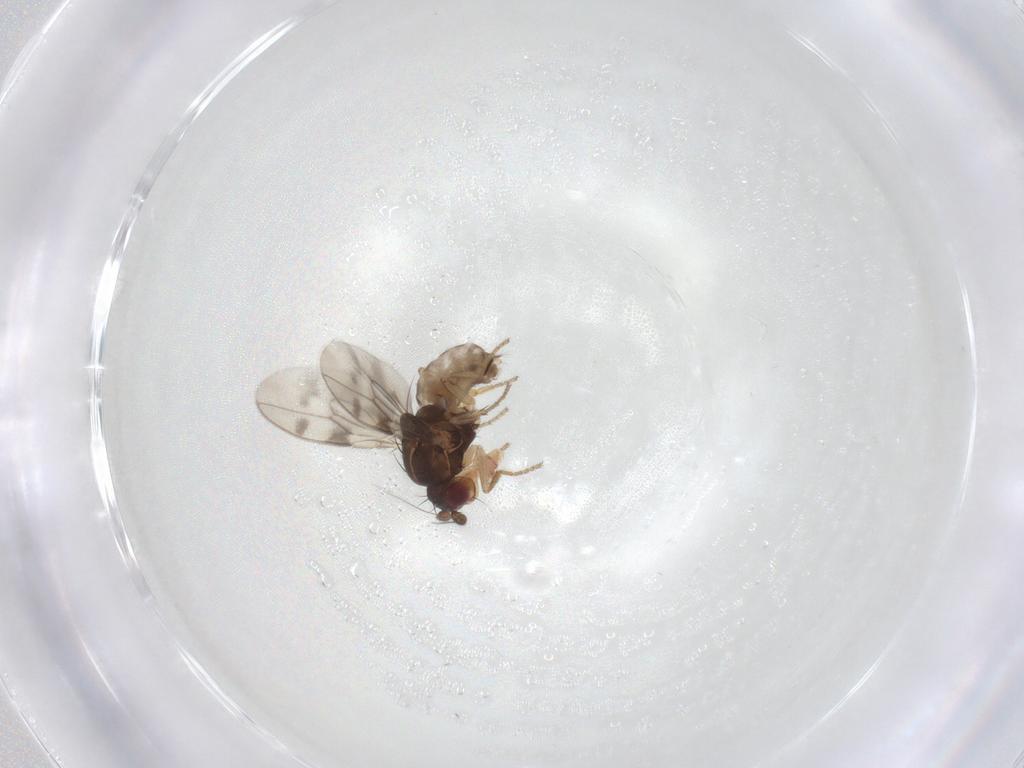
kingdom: Animalia
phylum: Arthropoda
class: Insecta
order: Diptera
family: Sphaeroceridae
